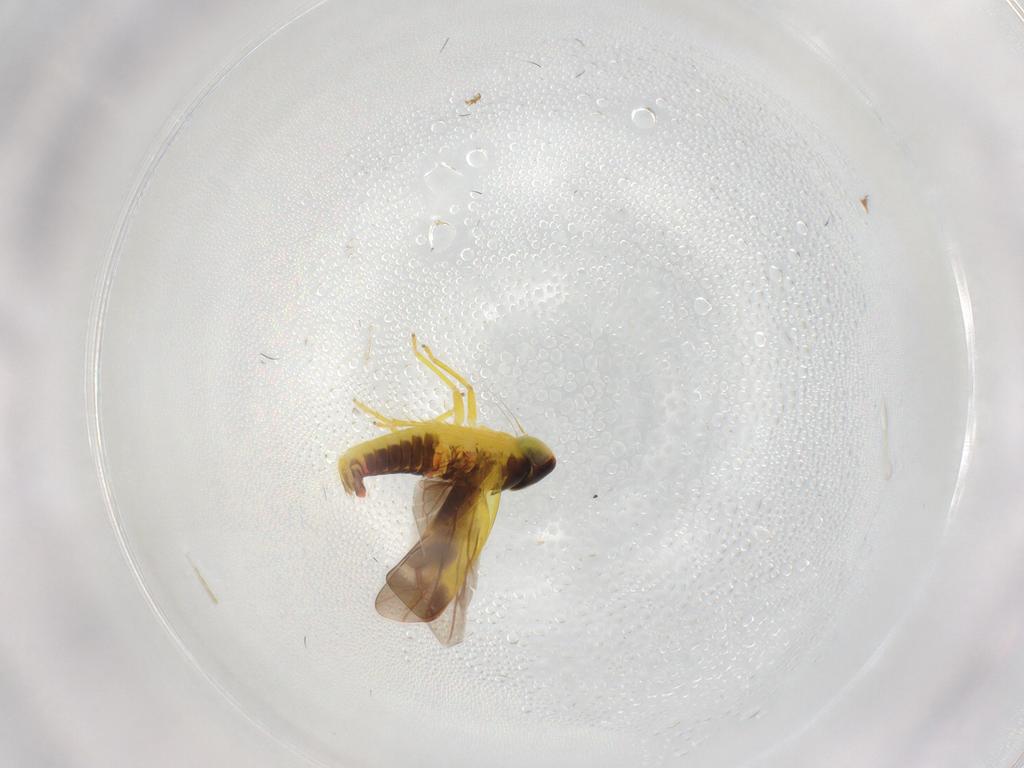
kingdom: Animalia
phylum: Arthropoda
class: Insecta
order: Hemiptera
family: Cicadellidae
